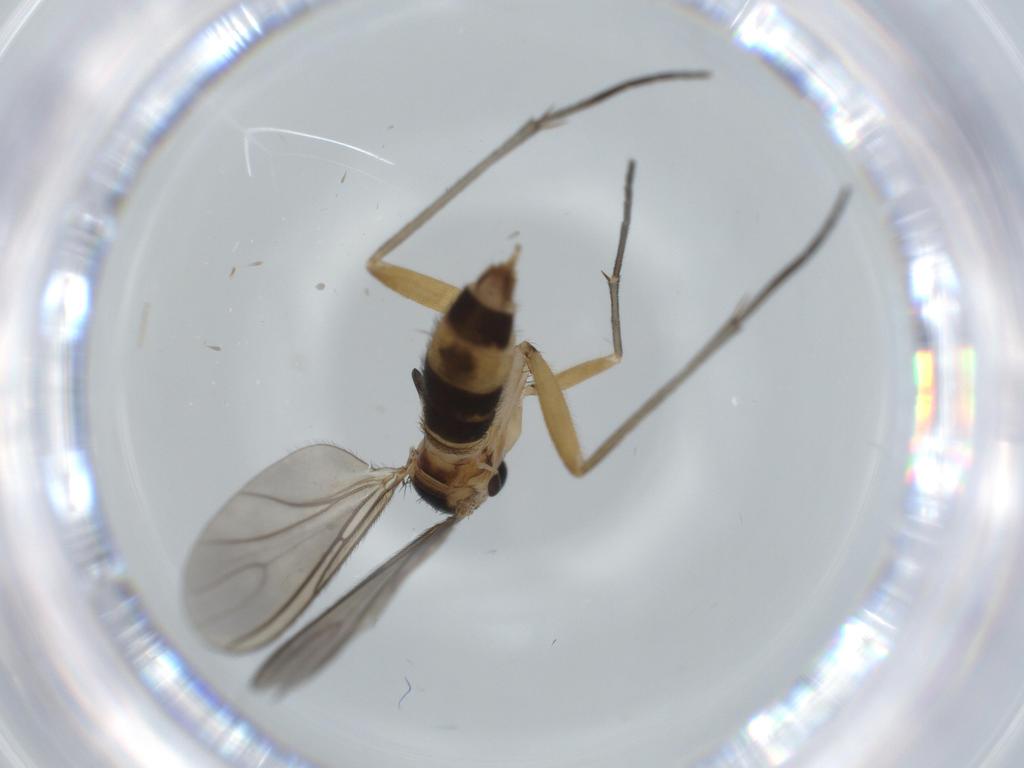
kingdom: Animalia
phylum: Arthropoda
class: Insecta
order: Diptera
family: Sciaridae
